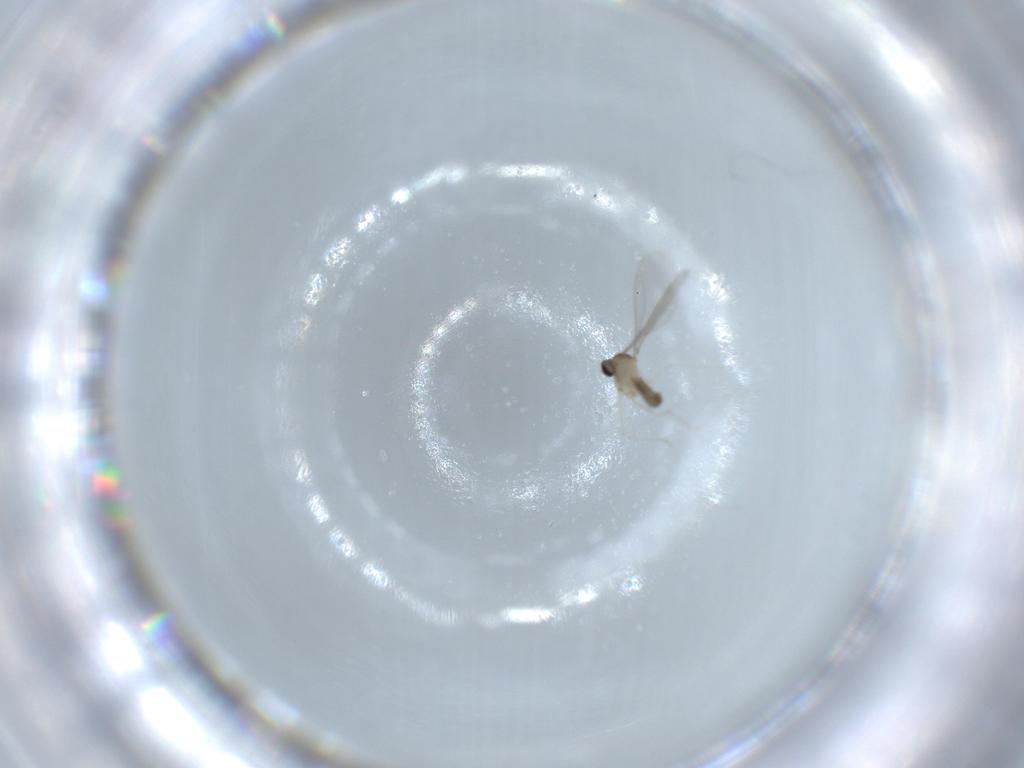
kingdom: Animalia
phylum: Arthropoda
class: Insecta
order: Diptera
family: Cecidomyiidae
